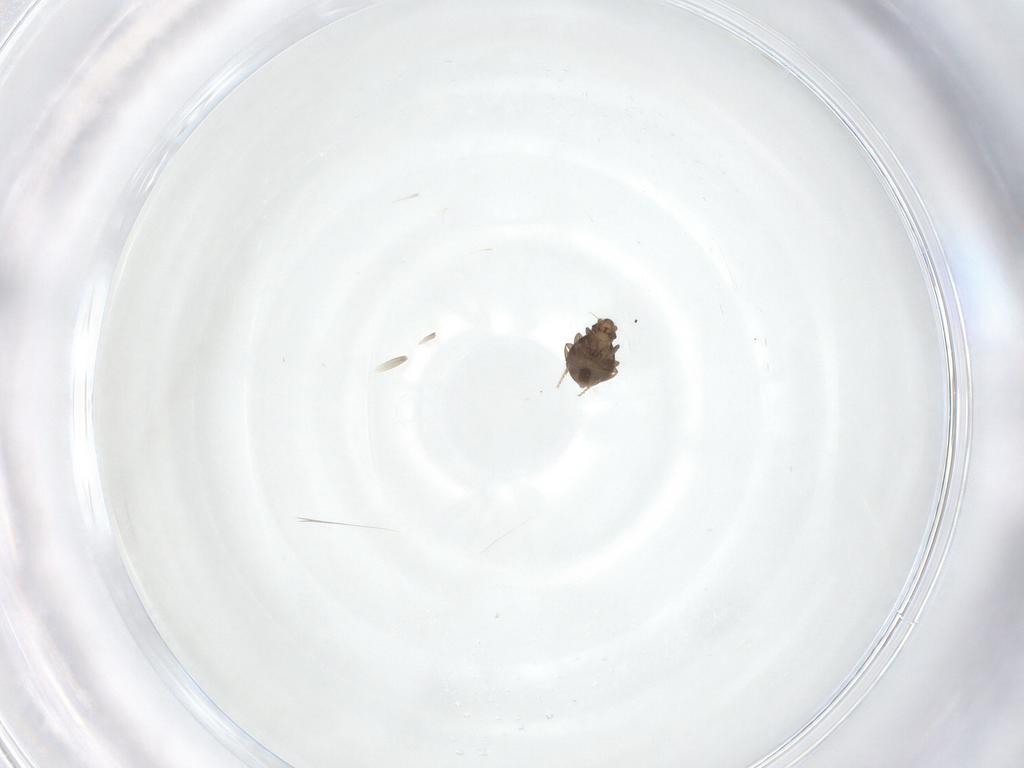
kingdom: Animalia
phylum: Arthropoda
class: Insecta
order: Diptera
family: Phoridae
